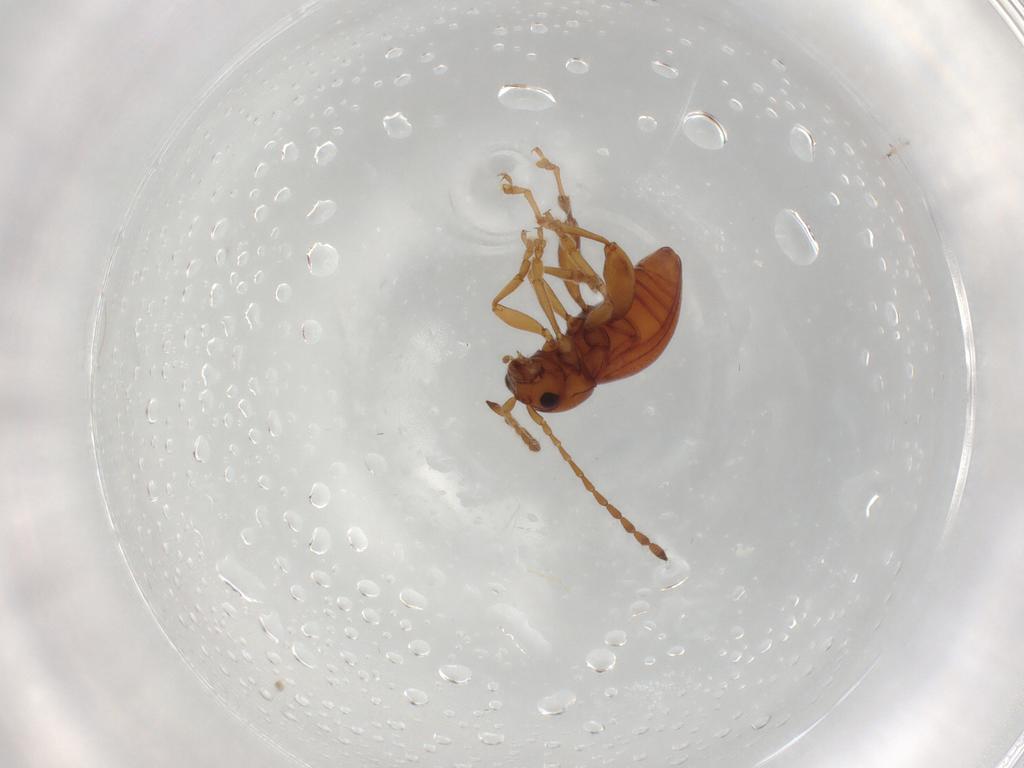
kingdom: Animalia
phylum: Arthropoda
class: Insecta
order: Coleoptera
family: Chrysomelidae
